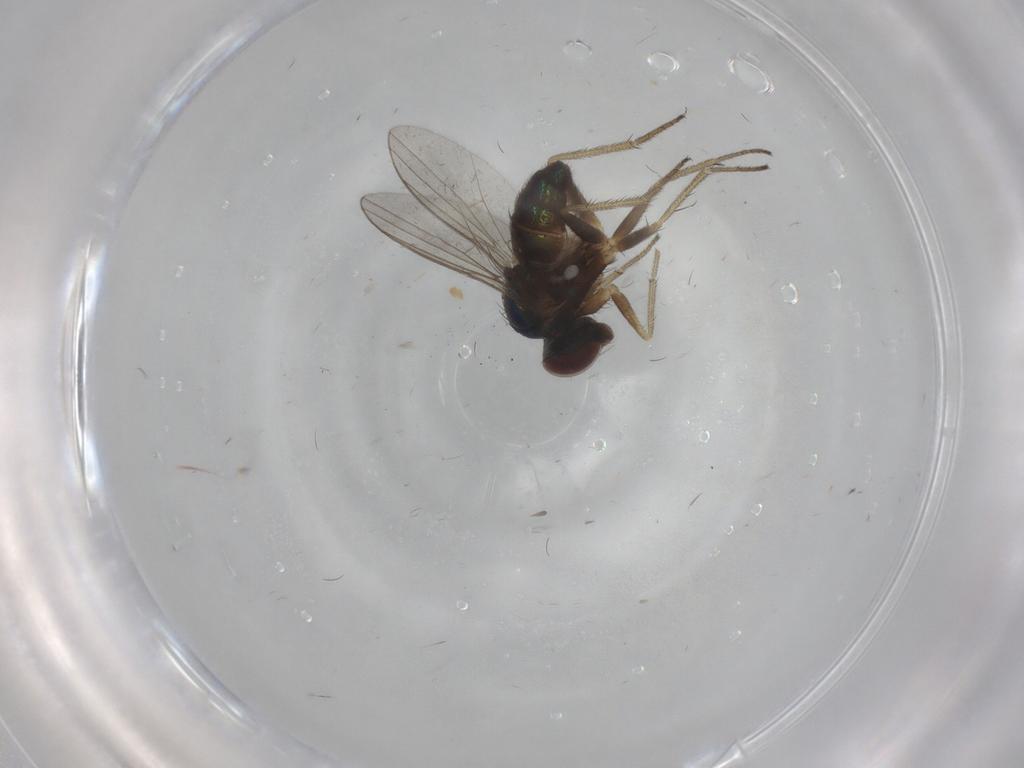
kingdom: Animalia
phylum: Arthropoda
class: Insecta
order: Diptera
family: Dolichopodidae
